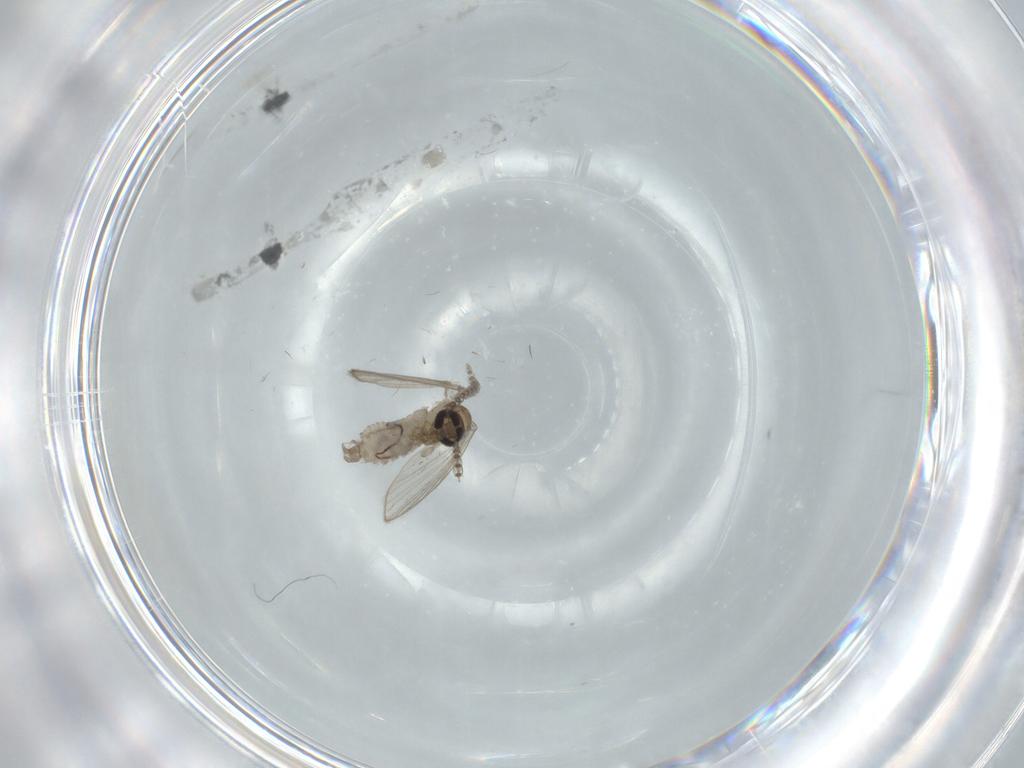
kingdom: Animalia
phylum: Arthropoda
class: Insecta
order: Diptera
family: Psychodidae
